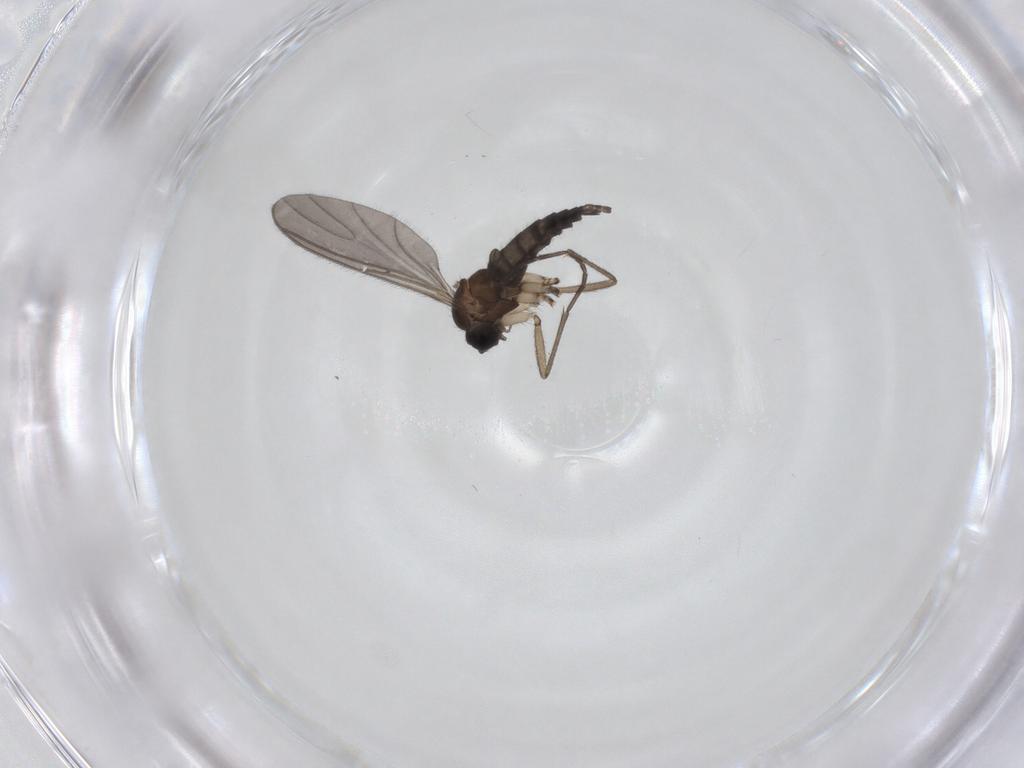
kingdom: Animalia
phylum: Arthropoda
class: Insecta
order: Diptera
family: Sciaridae
